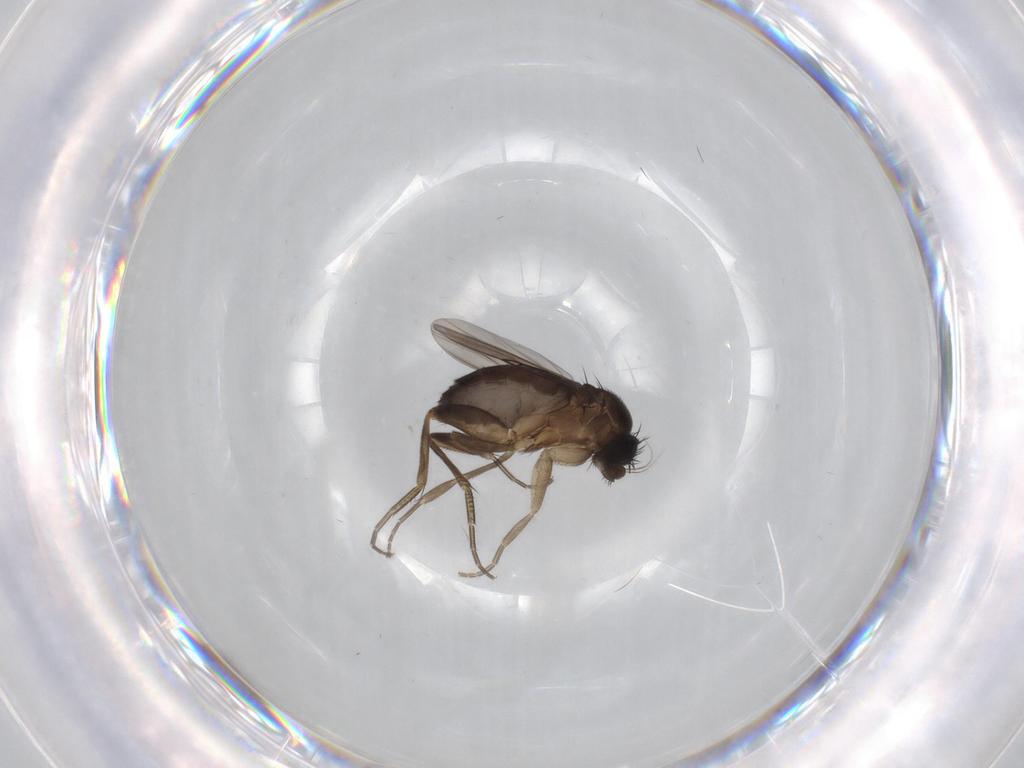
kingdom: Animalia
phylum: Arthropoda
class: Insecta
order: Diptera
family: Phoridae
